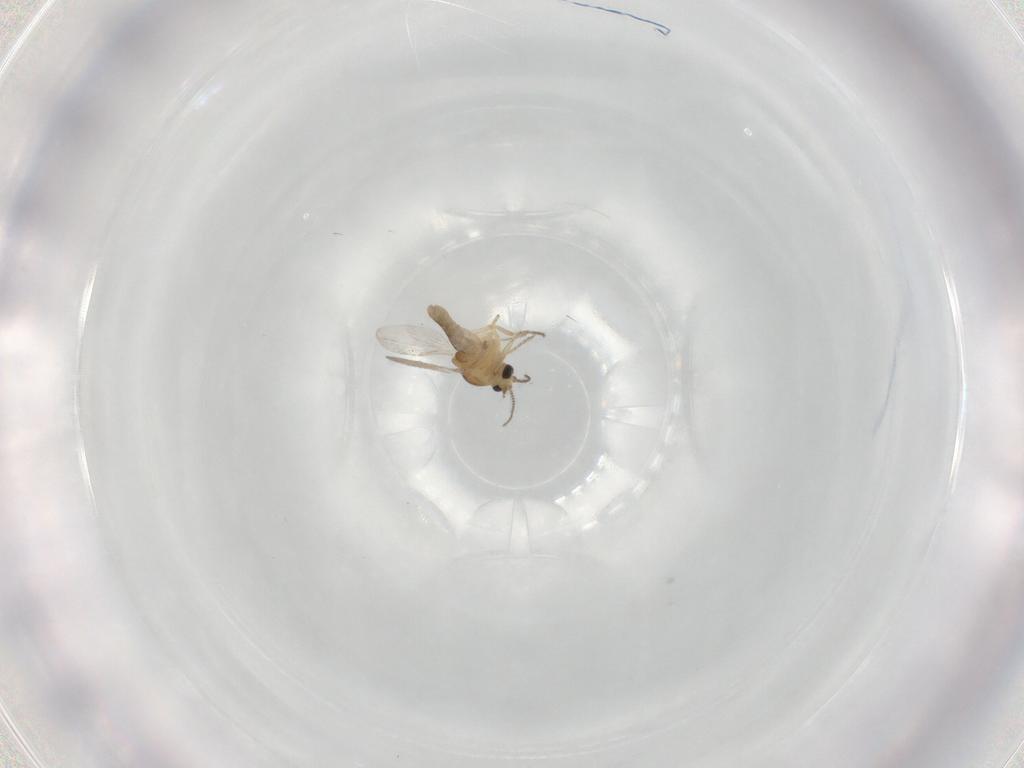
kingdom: Animalia
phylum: Arthropoda
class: Insecta
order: Diptera
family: Ceratopogonidae
